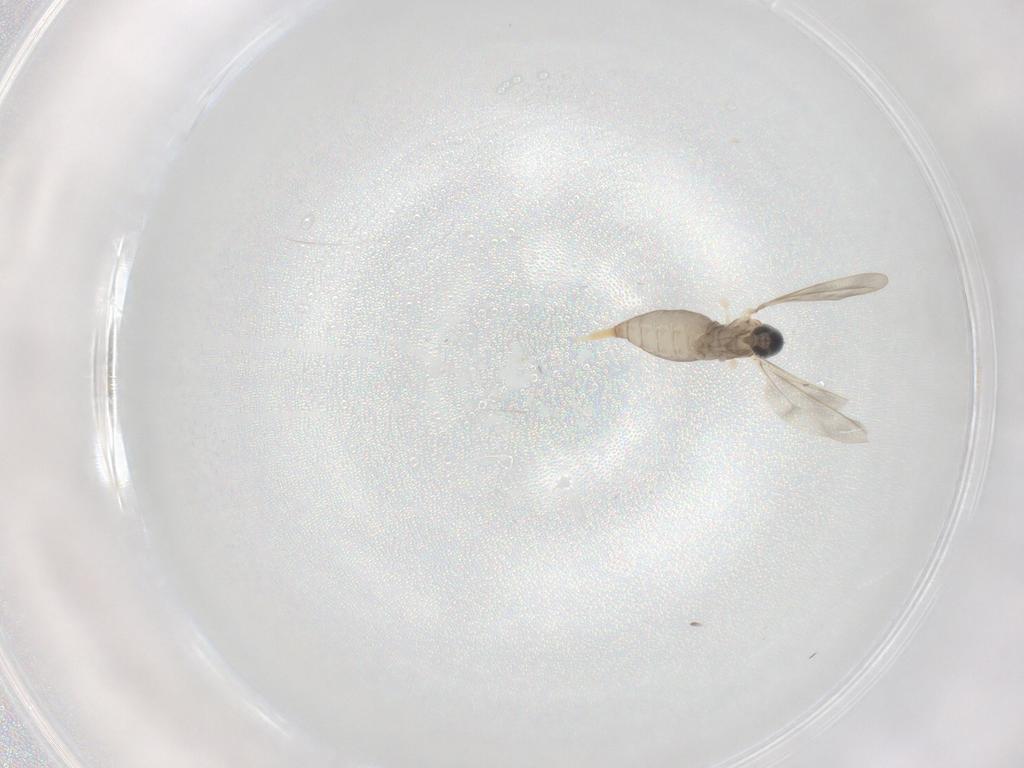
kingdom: Animalia
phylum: Arthropoda
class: Insecta
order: Diptera
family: Cecidomyiidae
